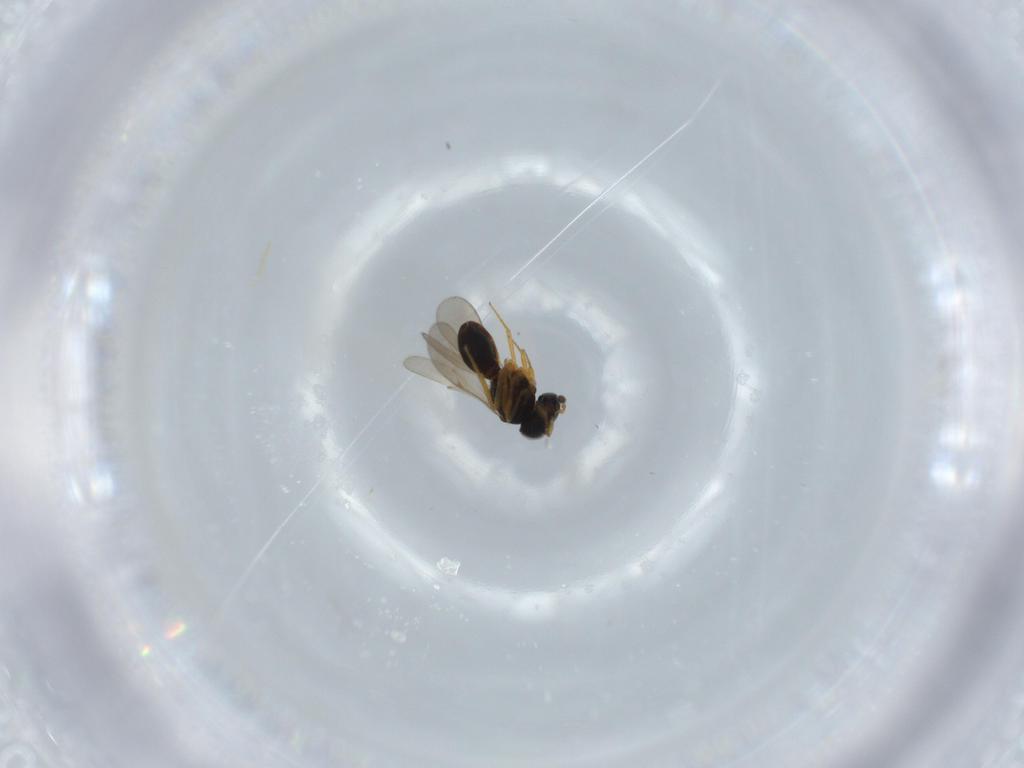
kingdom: Animalia
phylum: Arthropoda
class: Insecta
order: Hymenoptera
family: Scelionidae
